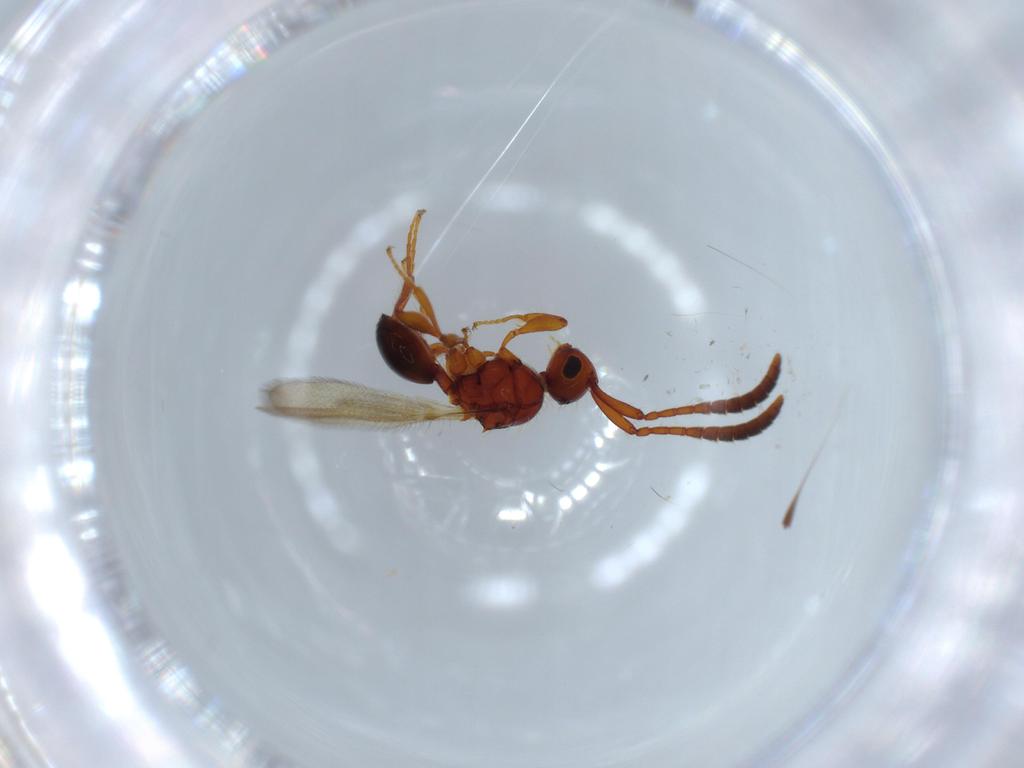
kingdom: Animalia
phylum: Arthropoda
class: Insecta
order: Hymenoptera
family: Diapriidae
